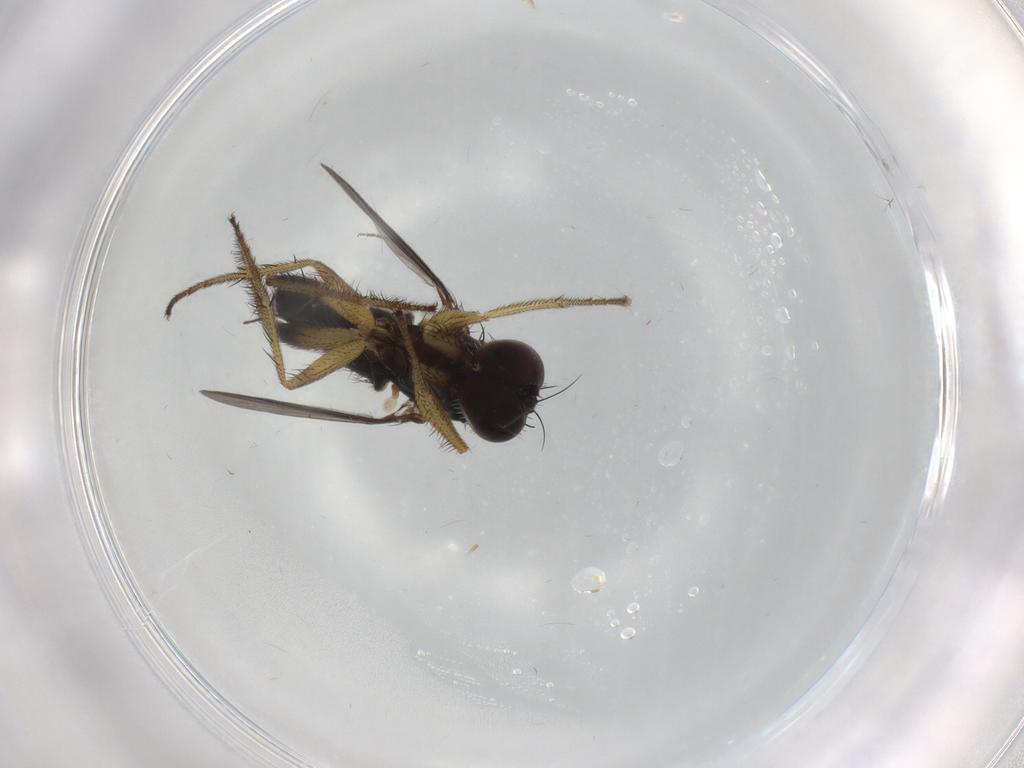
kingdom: Animalia
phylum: Arthropoda
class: Insecta
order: Diptera
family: Dolichopodidae
